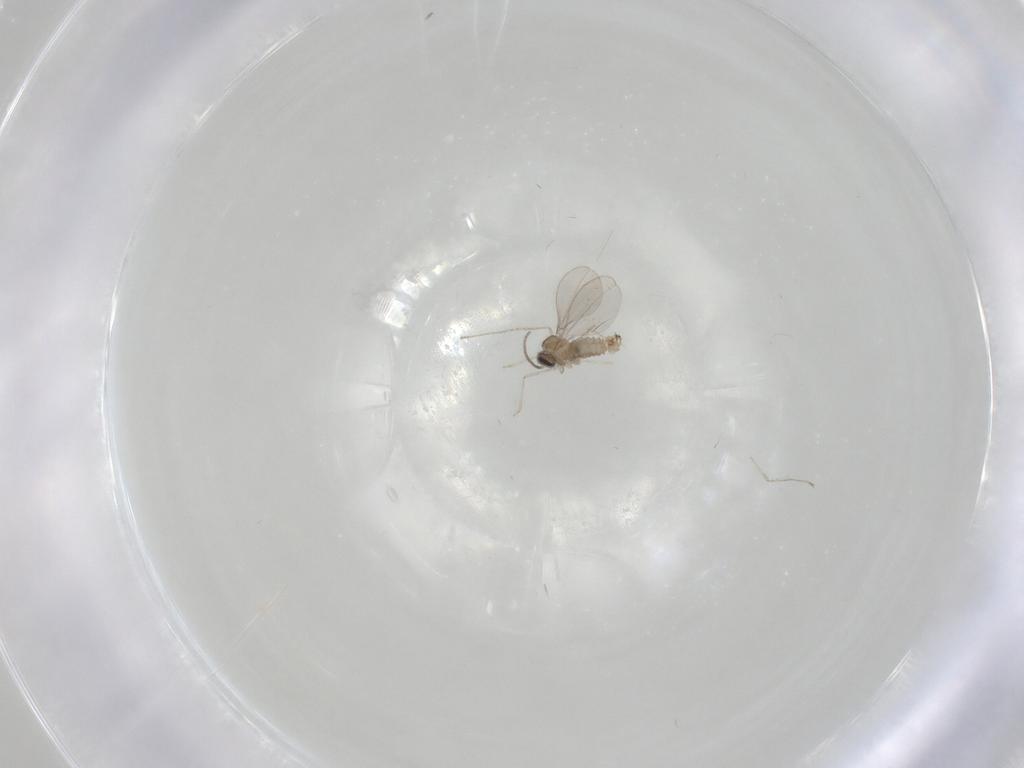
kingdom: Animalia
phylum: Arthropoda
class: Insecta
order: Diptera
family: Cecidomyiidae
